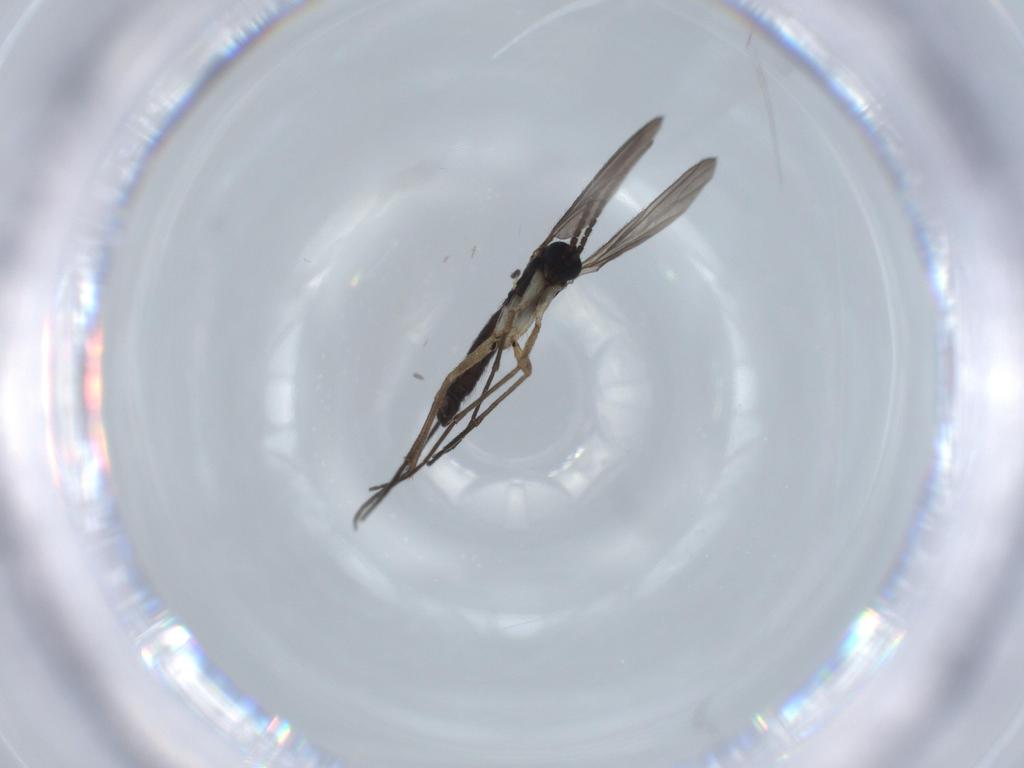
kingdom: Animalia
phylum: Arthropoda
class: Insecta
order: Diptera
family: Sciaridae
